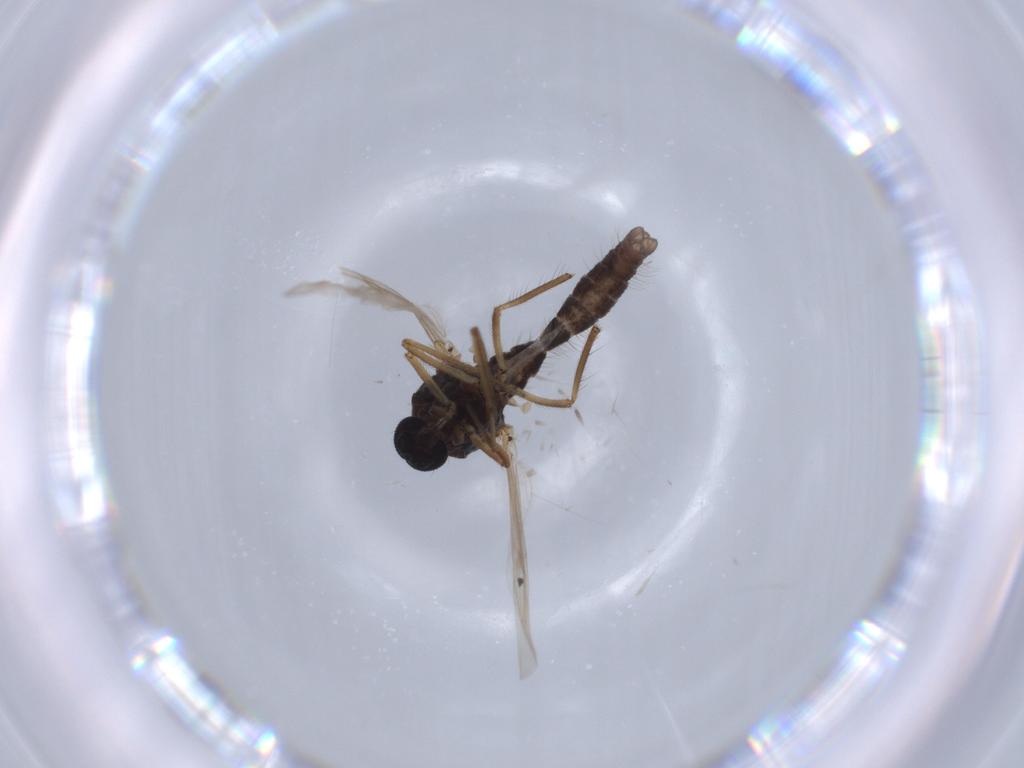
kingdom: Animalia
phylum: Arthropoda
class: Insecta
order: Diptera
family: Ceratopogonidae
